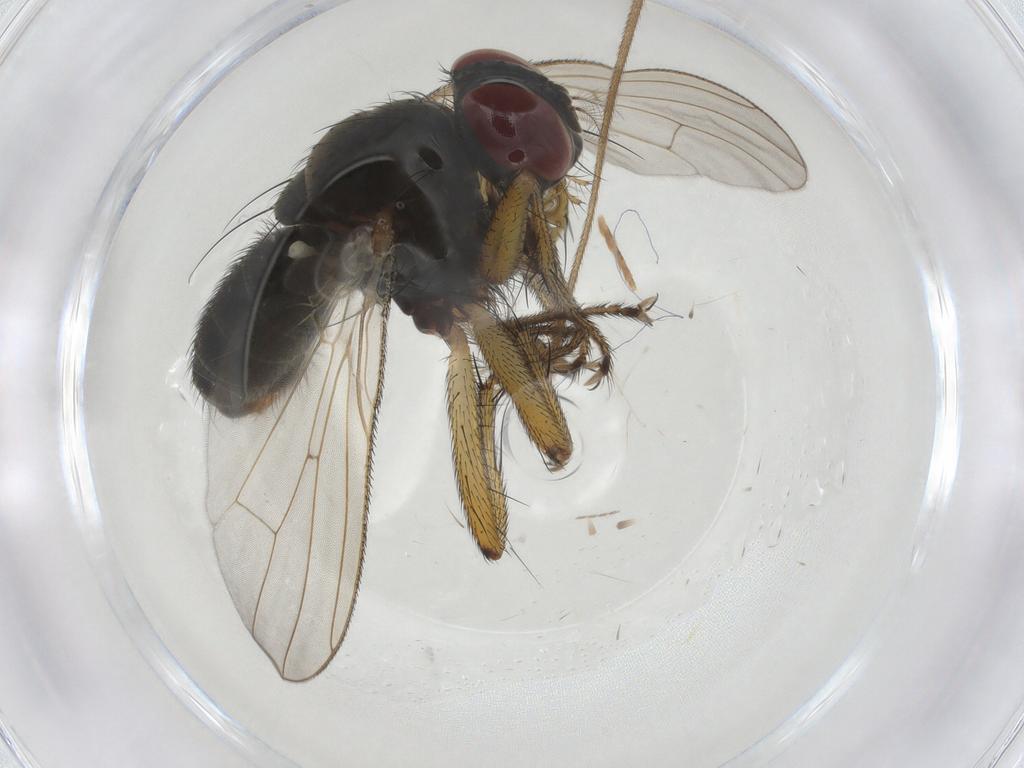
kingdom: Animalia
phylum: Arthropoda
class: Insecta
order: Diptera
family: Muscidae
